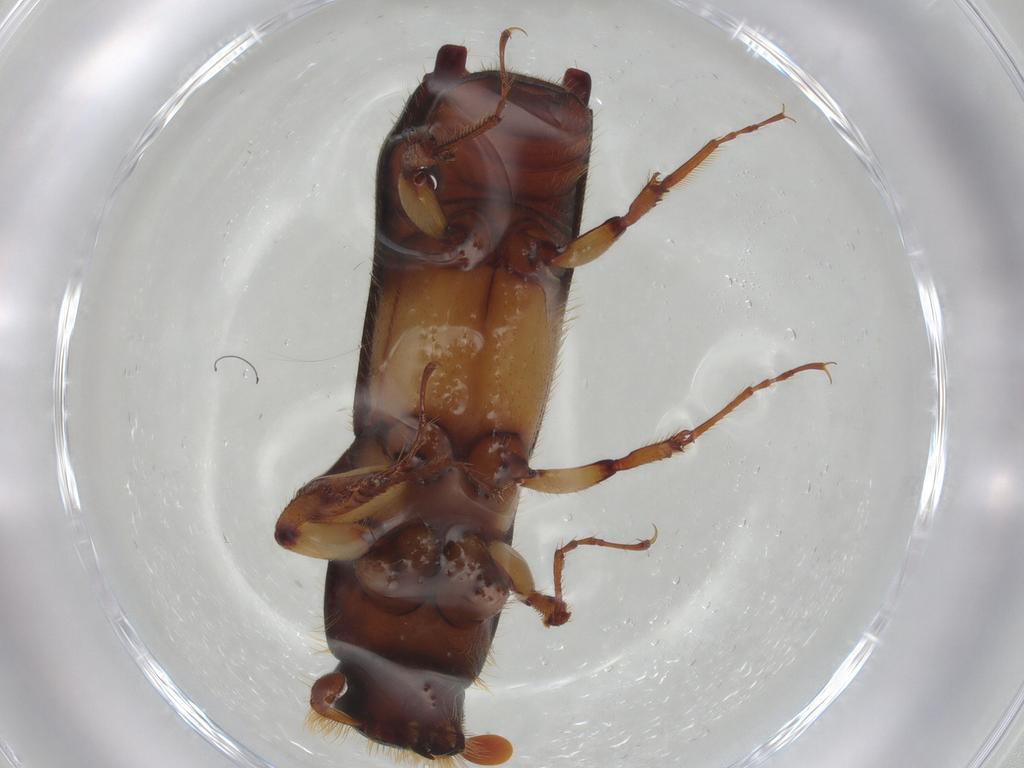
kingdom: Animalia
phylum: Arthropoda
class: Insecta
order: Coleoptera
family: Curculionidae
